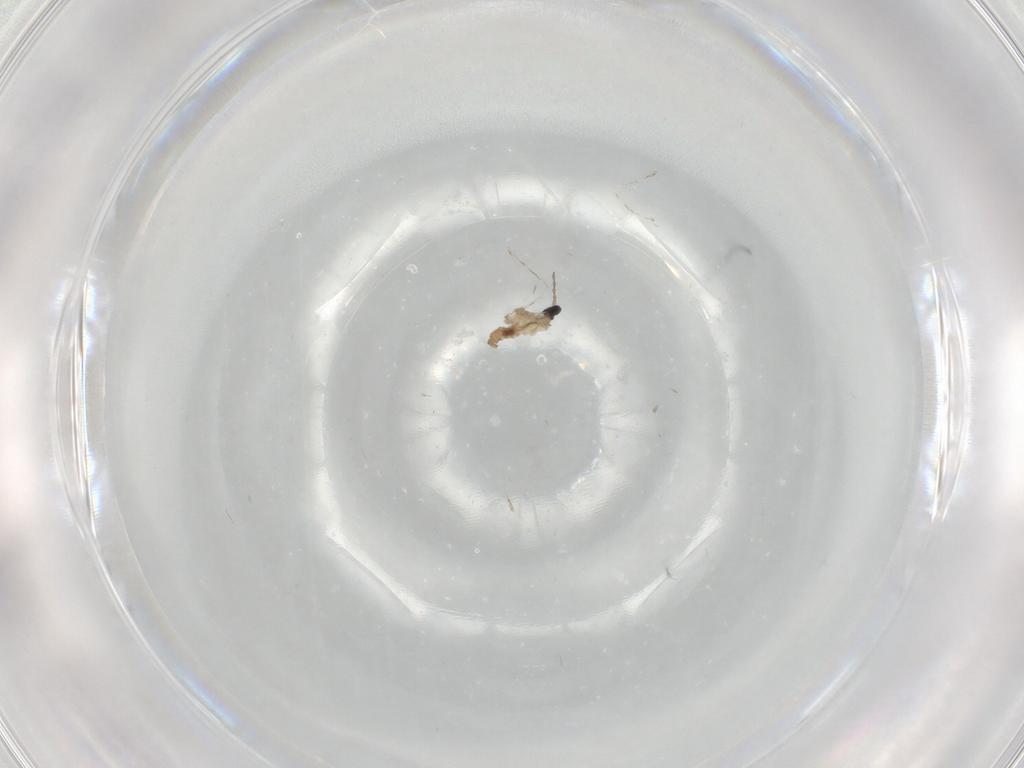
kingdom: Animalia
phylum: Arthropoda
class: Insecta
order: Diptera
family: Cecidomyiidae
